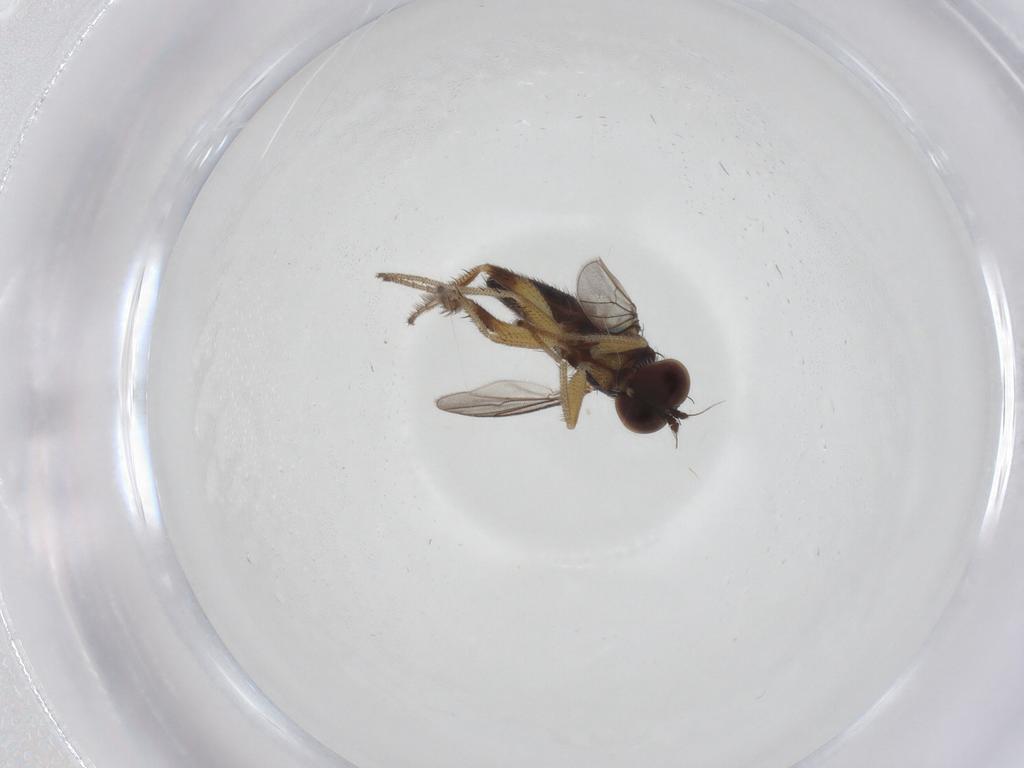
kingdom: Animalia
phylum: Arthropoda
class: Insecta
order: Diptera
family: Dolichopodidae
